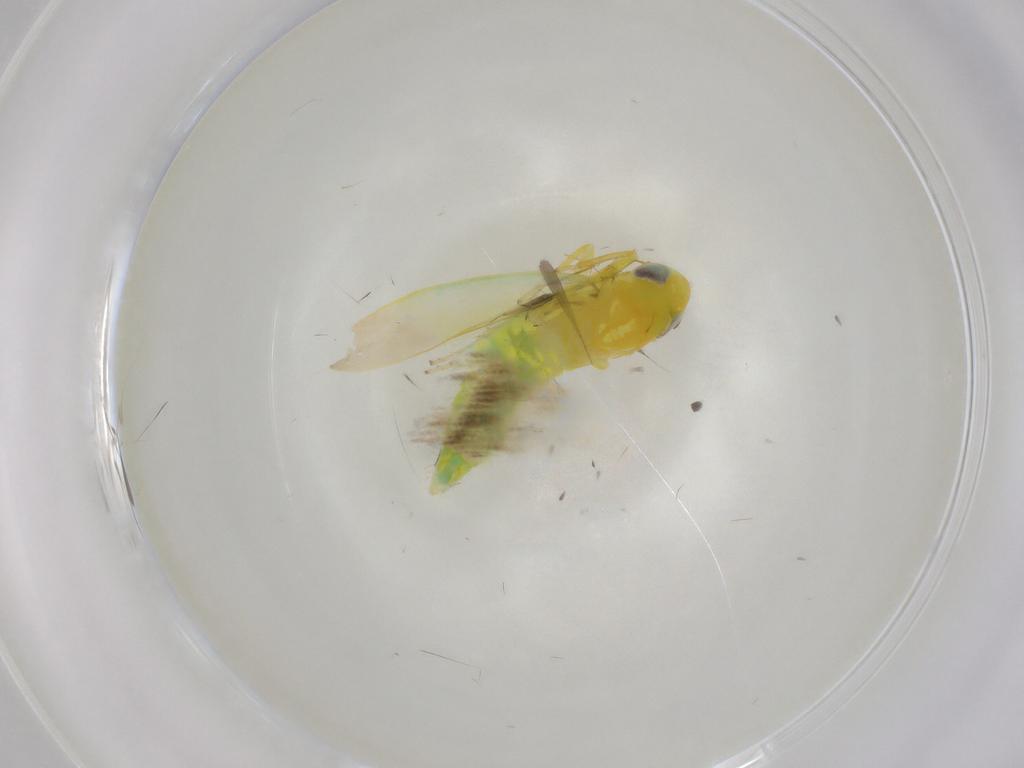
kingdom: Animalia
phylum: Arthropoda
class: Insecta
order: Hemiptera
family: Cicadellidae
